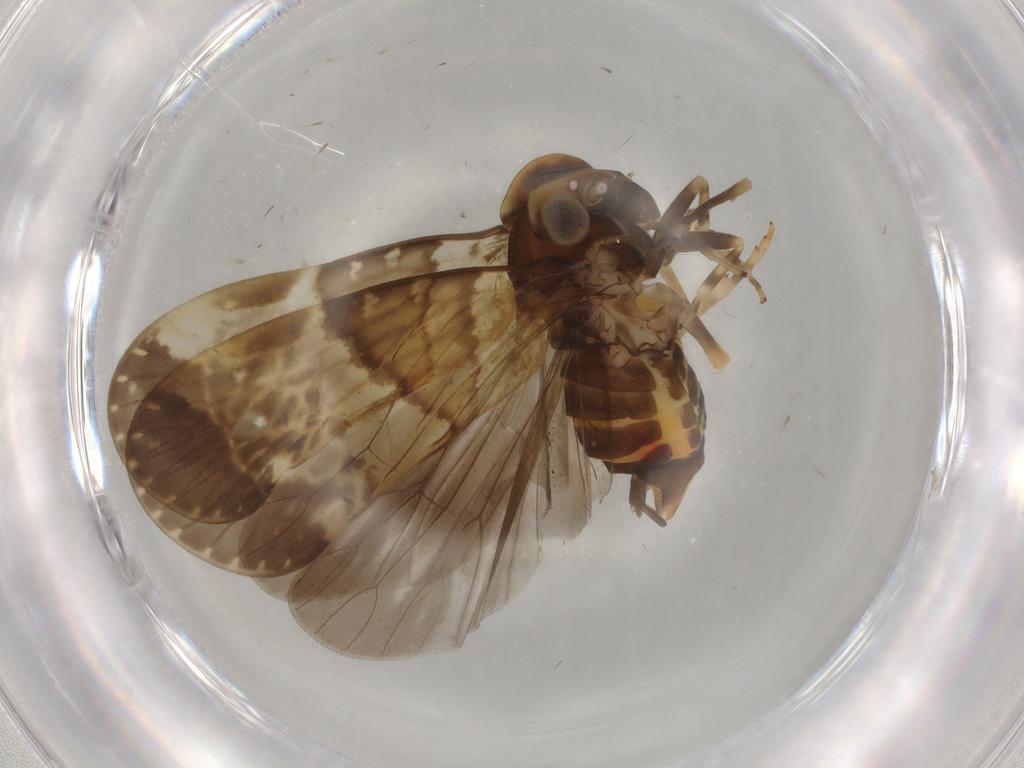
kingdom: Animalia
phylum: Arthropoda
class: Insecta
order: Hemiptera
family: Cixiidae
